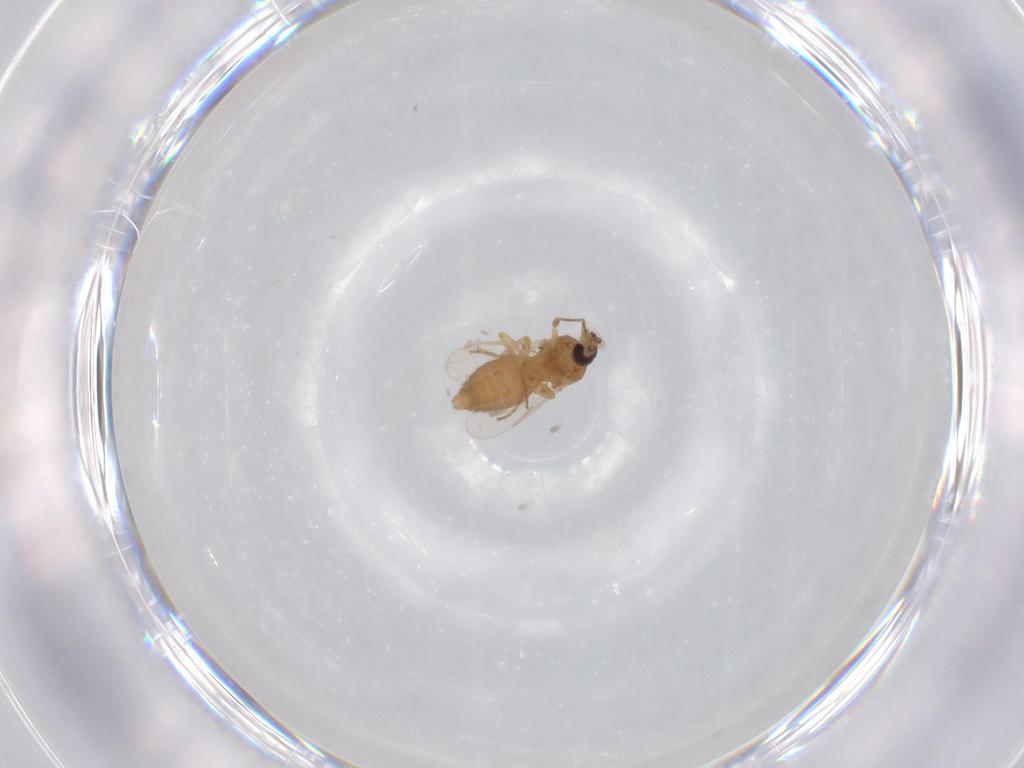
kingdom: Animalia
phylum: Arthropoda
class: Insecta
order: Diptera
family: Ceratopogonidae
